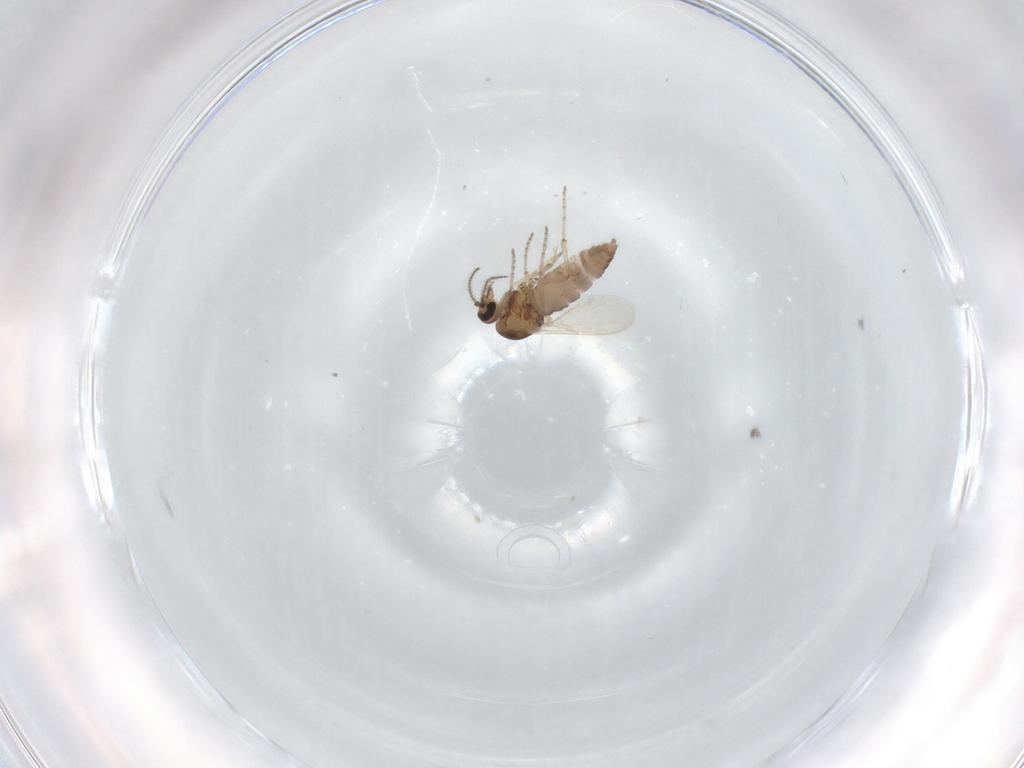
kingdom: Animalia
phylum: Arthropoda
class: Insecta
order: Diptera
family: Ceratopogonidae
